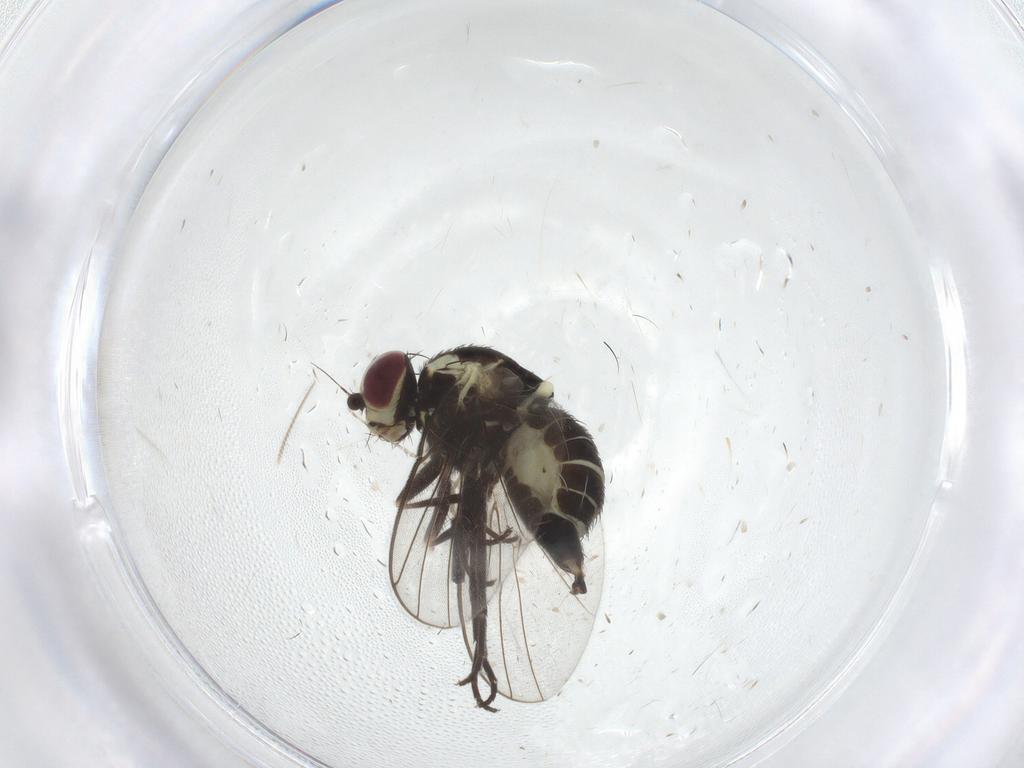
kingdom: Animalia
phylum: Arthropoda
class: Insecta
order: Diptera
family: Agromyzidae
